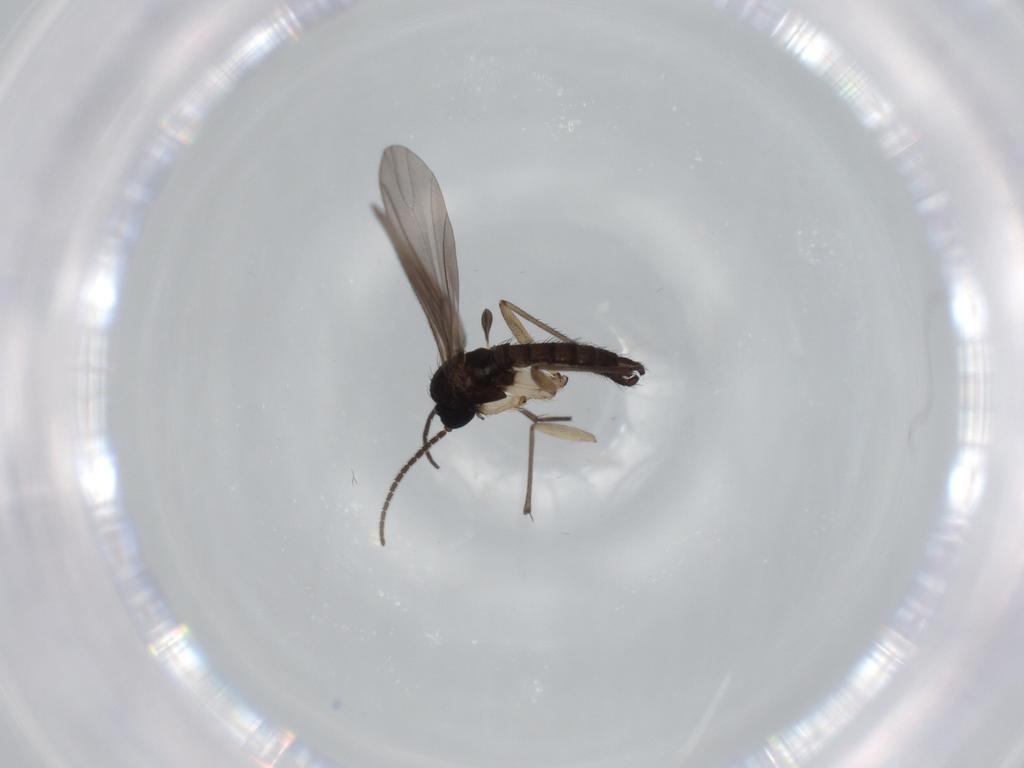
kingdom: Animalia
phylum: Arthropoda
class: Insecta
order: Diptera
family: Sciaridae
